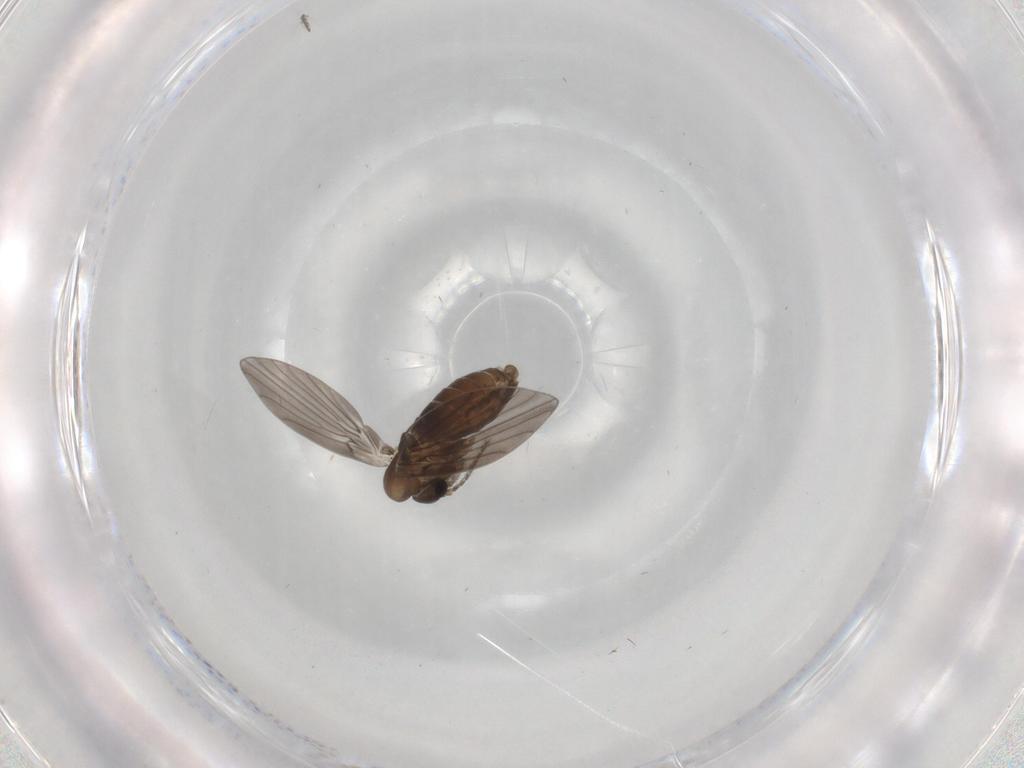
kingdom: Animalia
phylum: Arthropoda
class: Insecta
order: Diptera
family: Psychodidae
